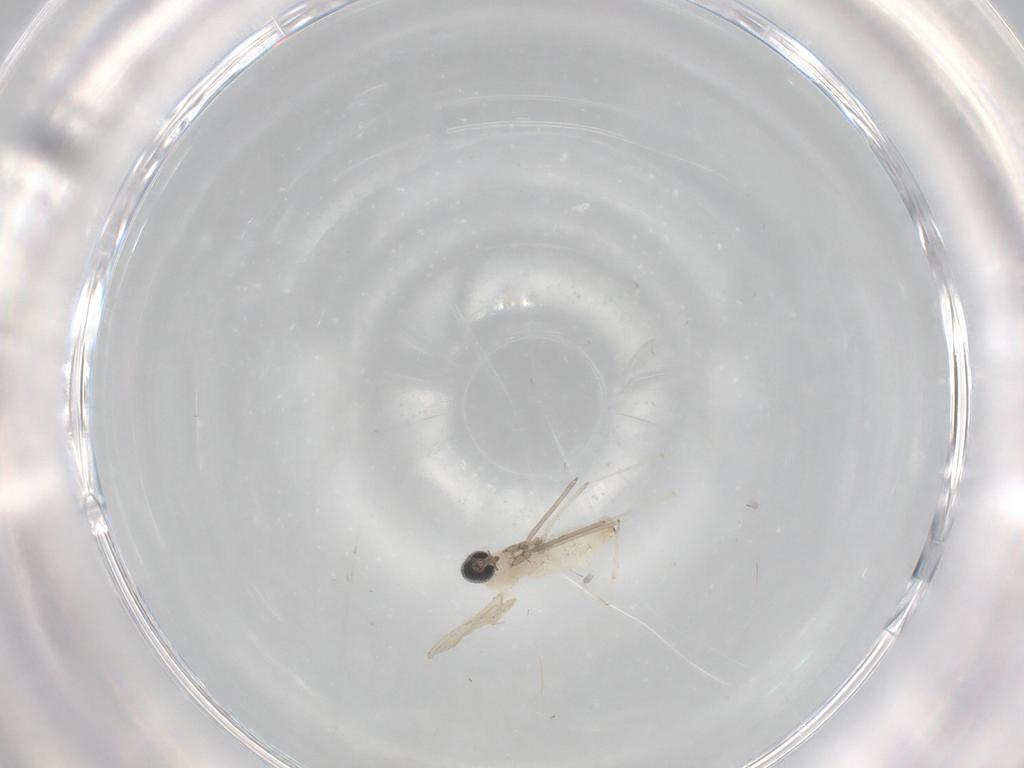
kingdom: Animalia
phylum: Arthropoda
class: Insecta
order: Diptera
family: Cecidomyiidae
